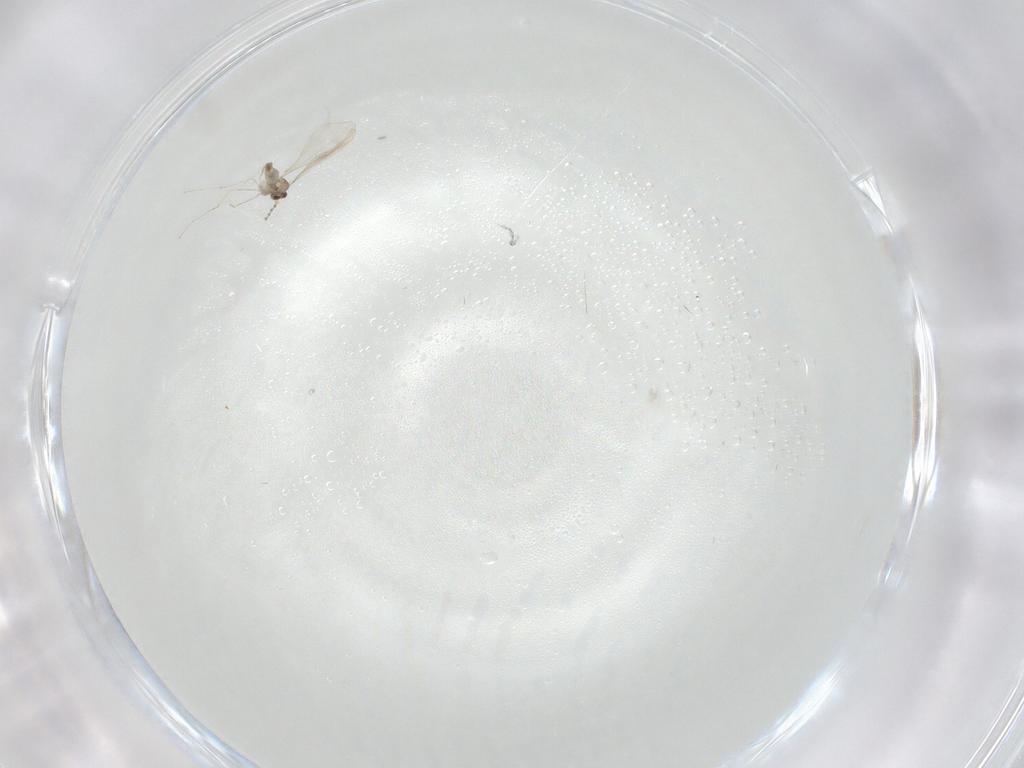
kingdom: Animalia
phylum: Arthropoda
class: Insecta
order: Diptera
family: Cecidomyiidae
